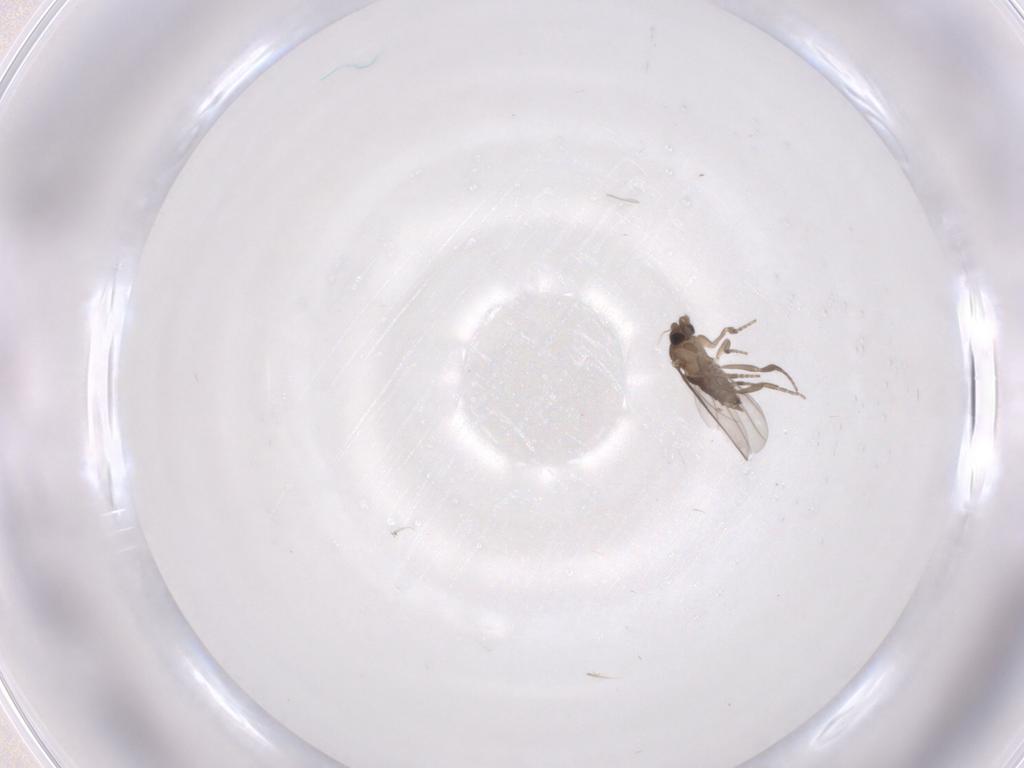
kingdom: Animalia
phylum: Arthropoda
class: Insecta
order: Diptera
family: Phoridae
